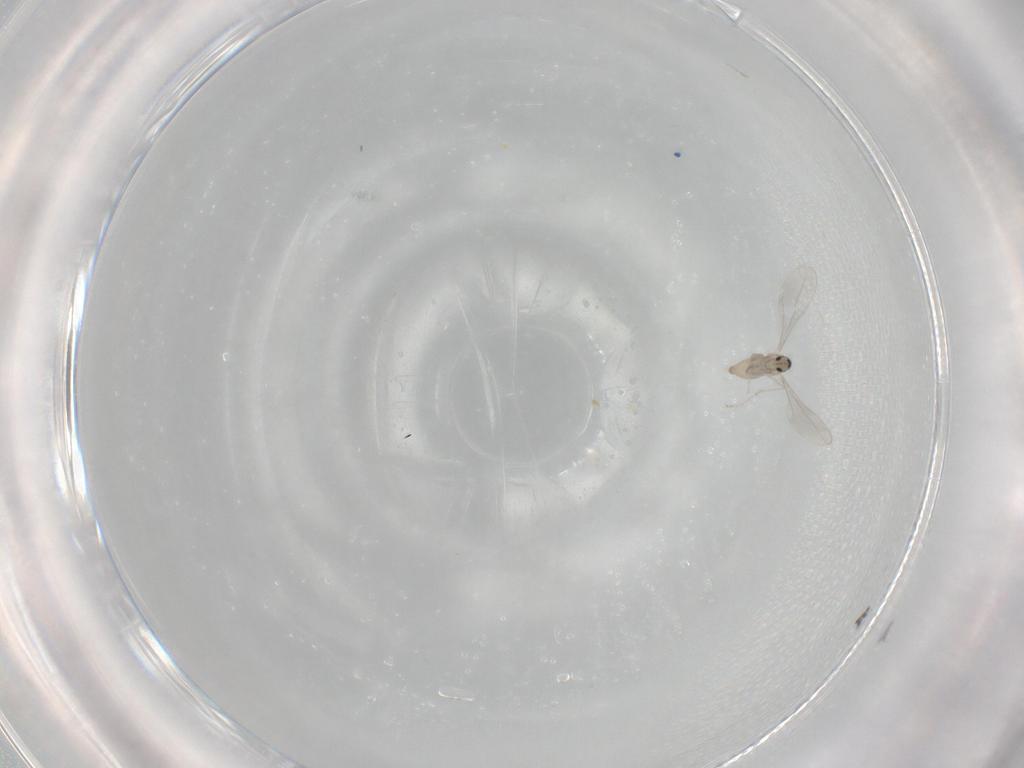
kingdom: Animalia
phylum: Arthropoda
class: Insecta
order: Diptera
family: Cecidomyiidae
